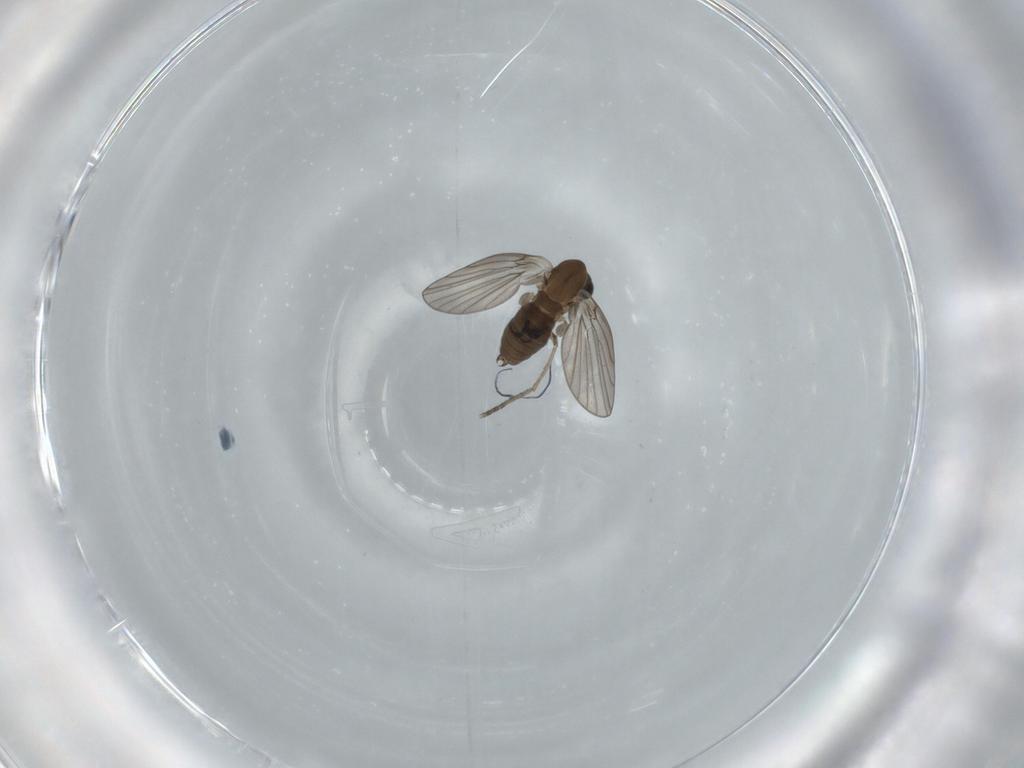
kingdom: Animalia
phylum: Arthropoda
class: Insecta
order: Diptera
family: Psychodidae
